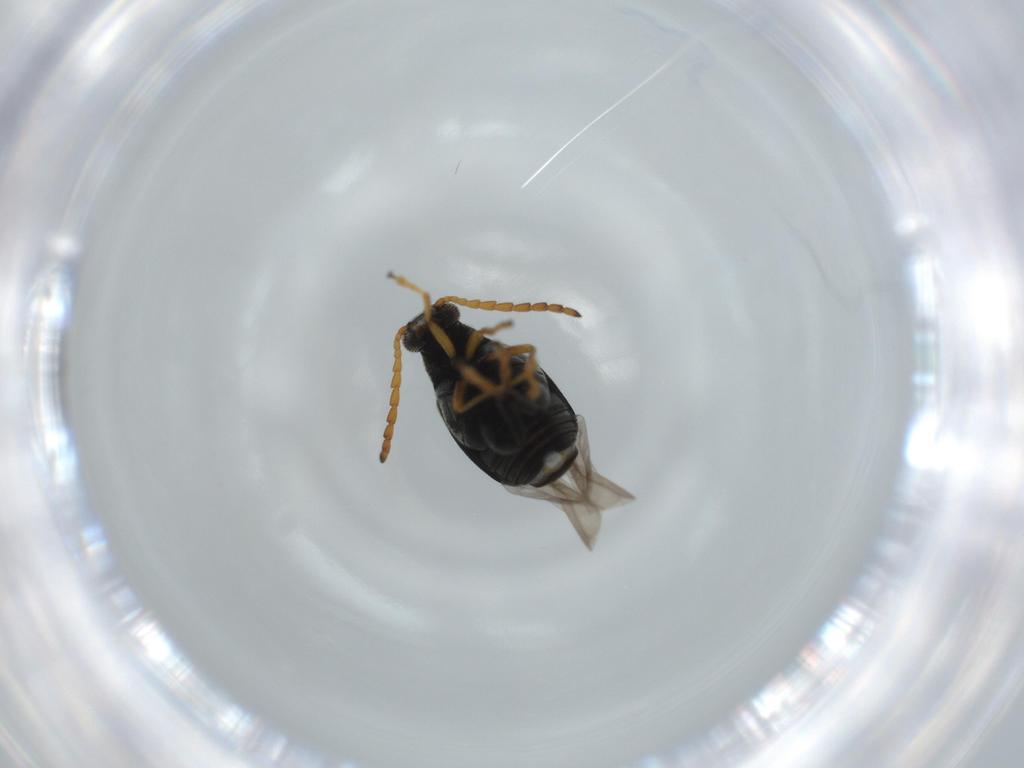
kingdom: Animalia
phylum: Arthropoda
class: Insecta
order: Coleoptera
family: Chrysomelidae
